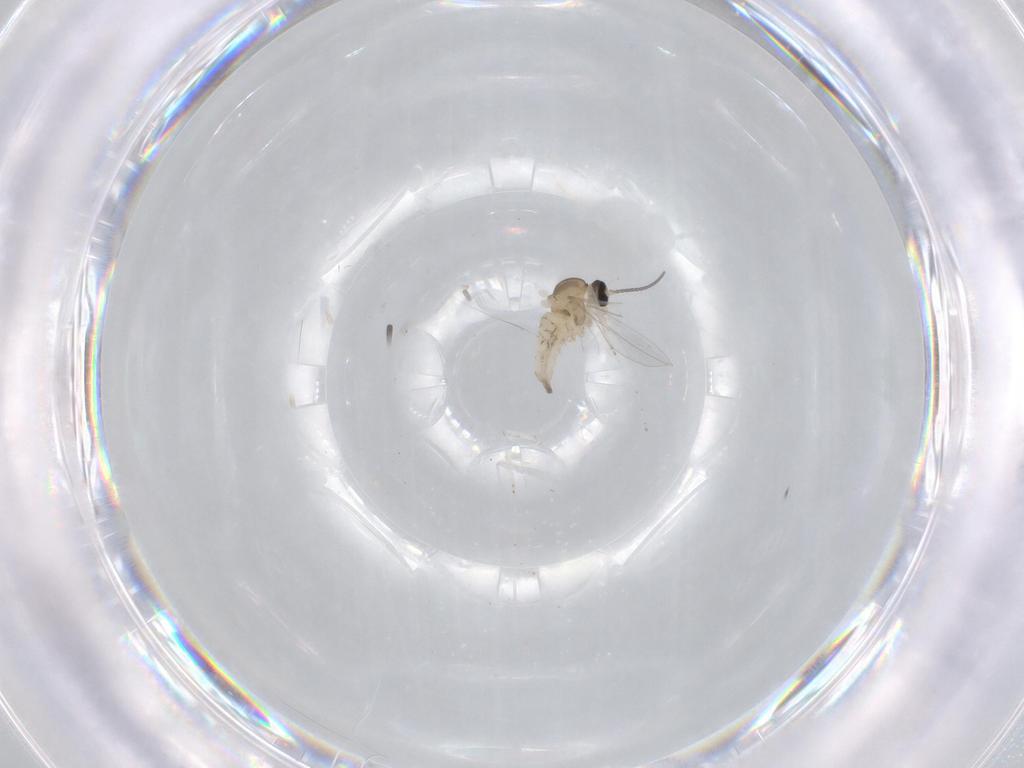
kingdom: Animalia
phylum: Arthropoda
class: Insecta
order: Diptera
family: Cecidomyiidae
